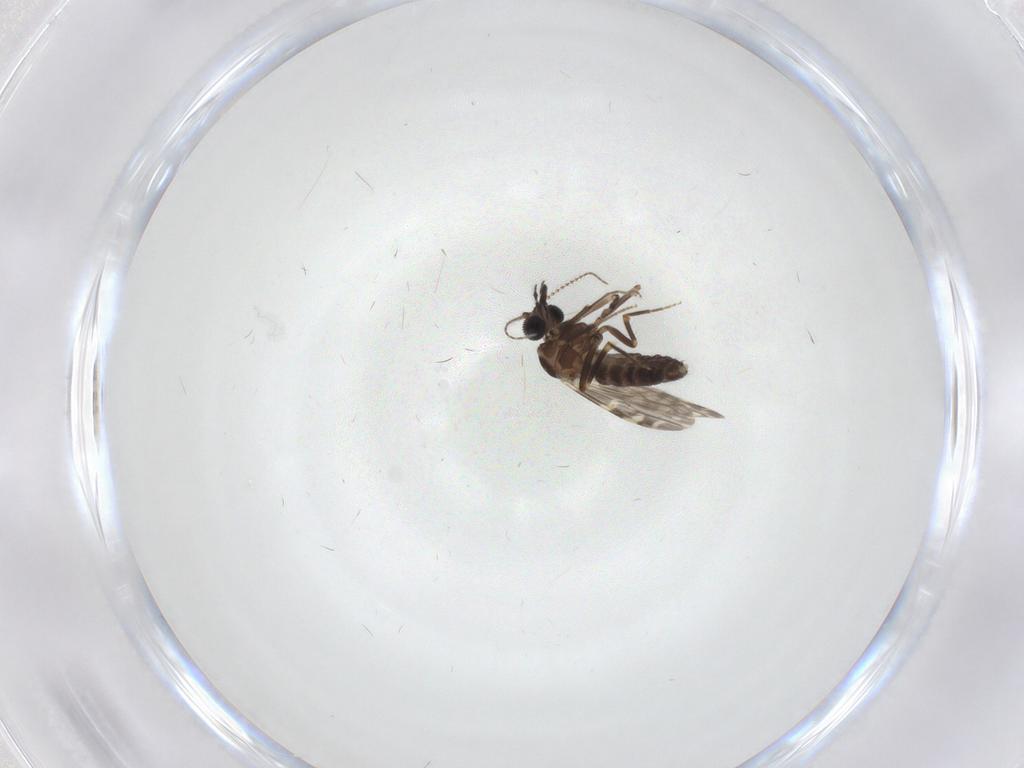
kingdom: Animalia
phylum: Arthropoda
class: Insecta
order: Diptera
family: Ceratopogonidae
